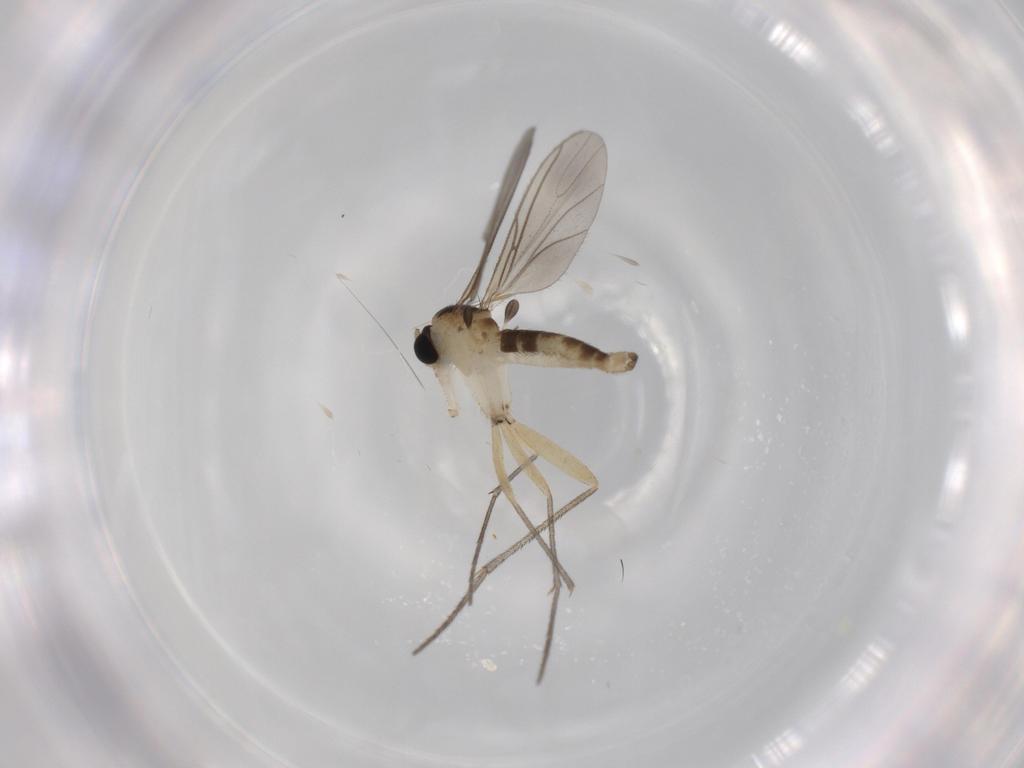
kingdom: Animalia
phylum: Arthropoda
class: Insecta
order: Diptera
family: Sciaridae
